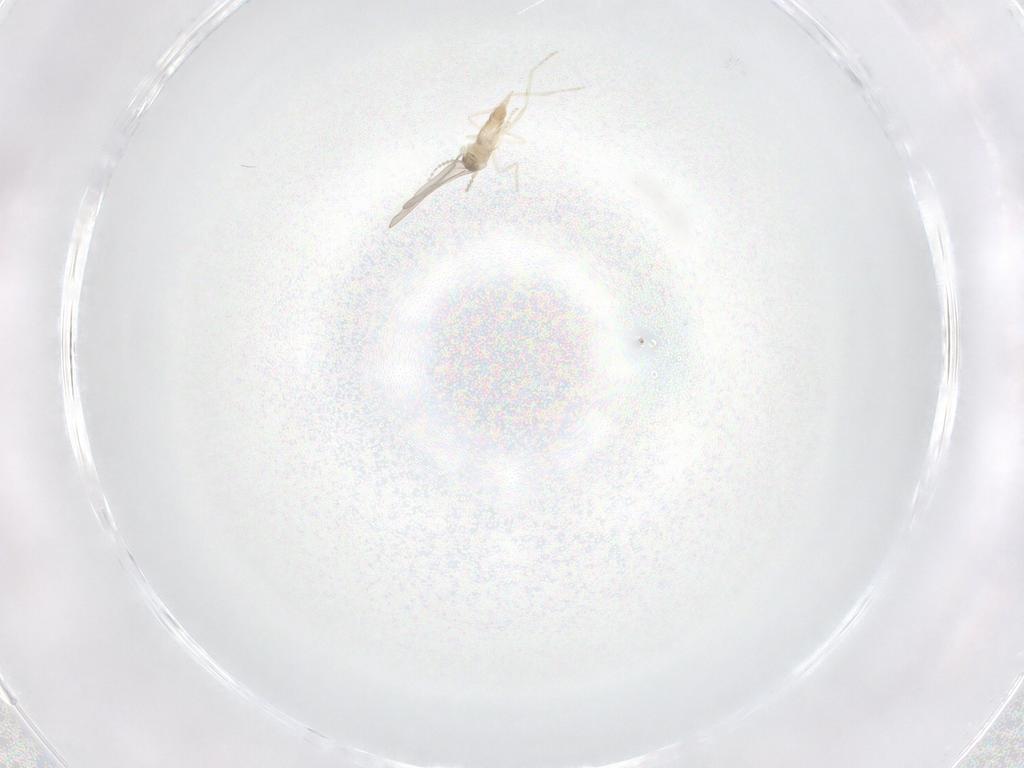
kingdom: Animalia
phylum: Arthropoda
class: Insecta
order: Diptera
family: Cecidomyiidae
